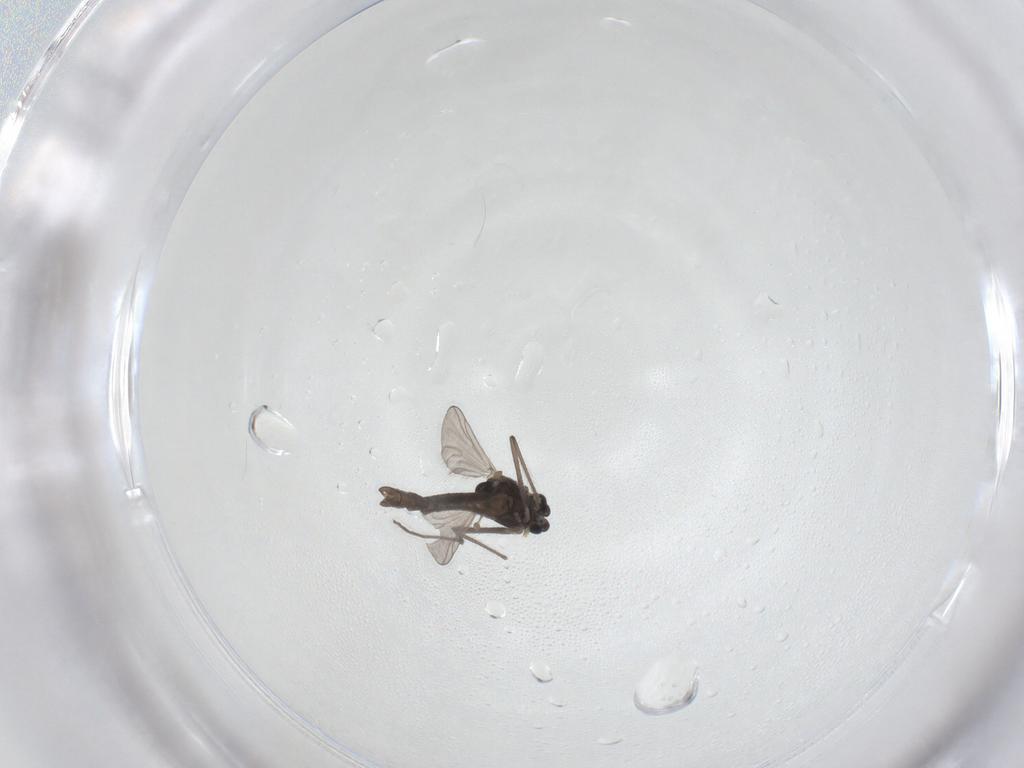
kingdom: Animalia
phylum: Arthropoda
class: Insecta
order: Diptera
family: Chironomidae
